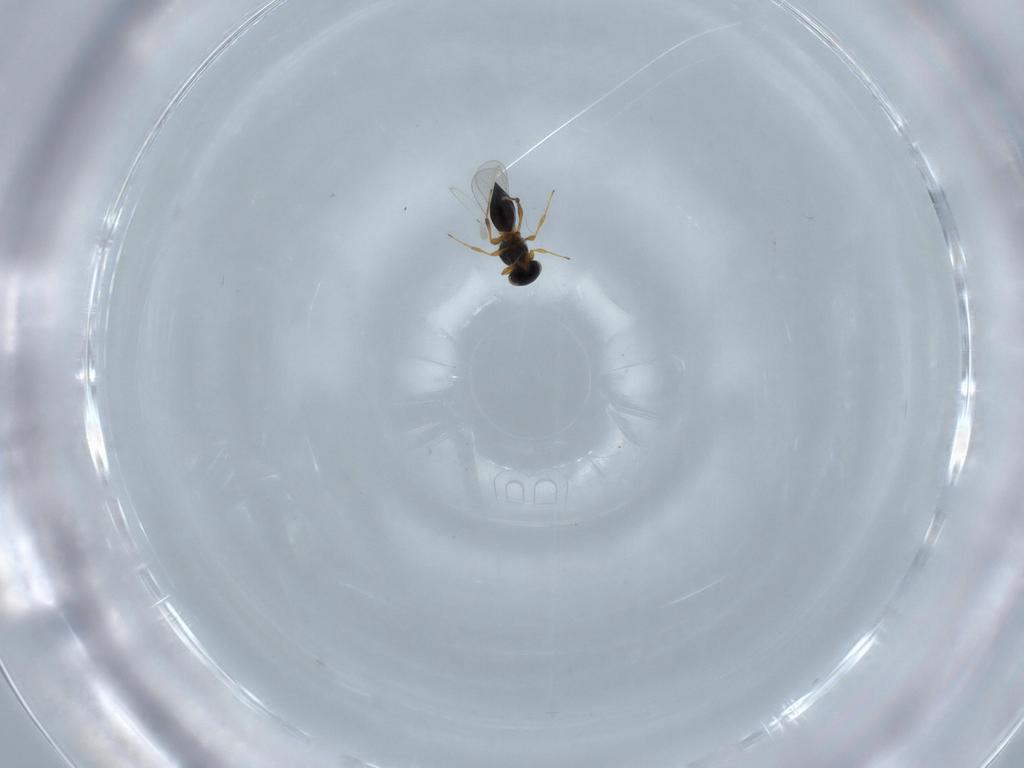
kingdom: Animalia
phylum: Arthropoda
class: Insecta
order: Hymenoptera
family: Platygastridae
